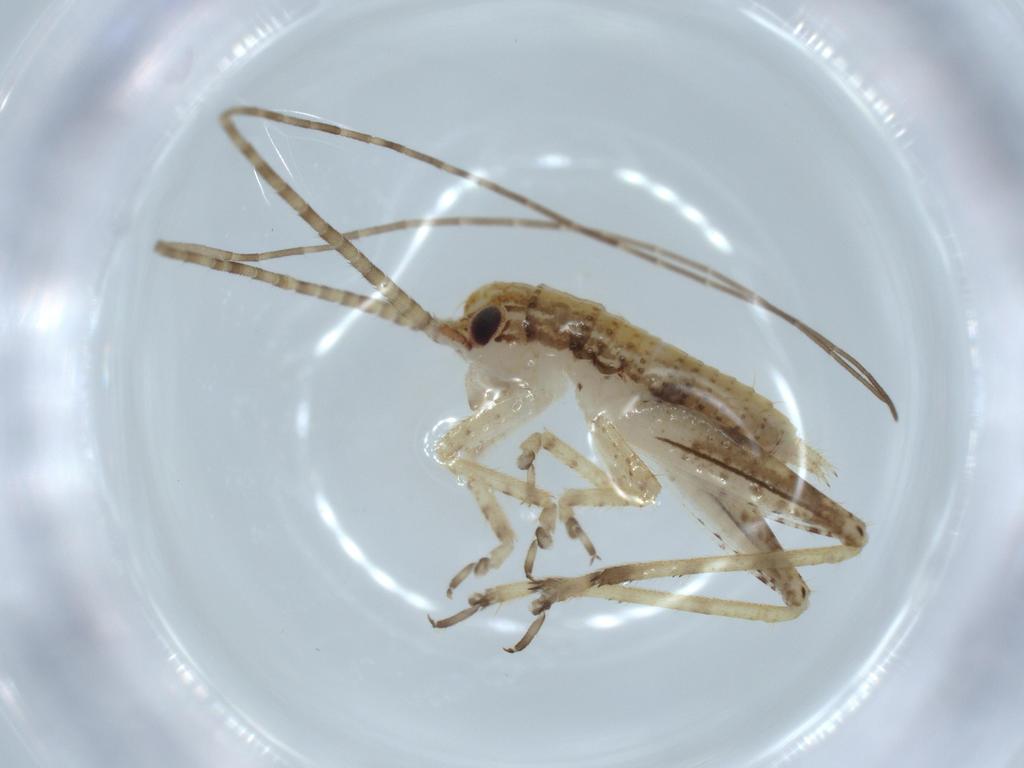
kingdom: Animalia
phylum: Arthropoda
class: Insecta
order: Orthoptera
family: Gryllidae
